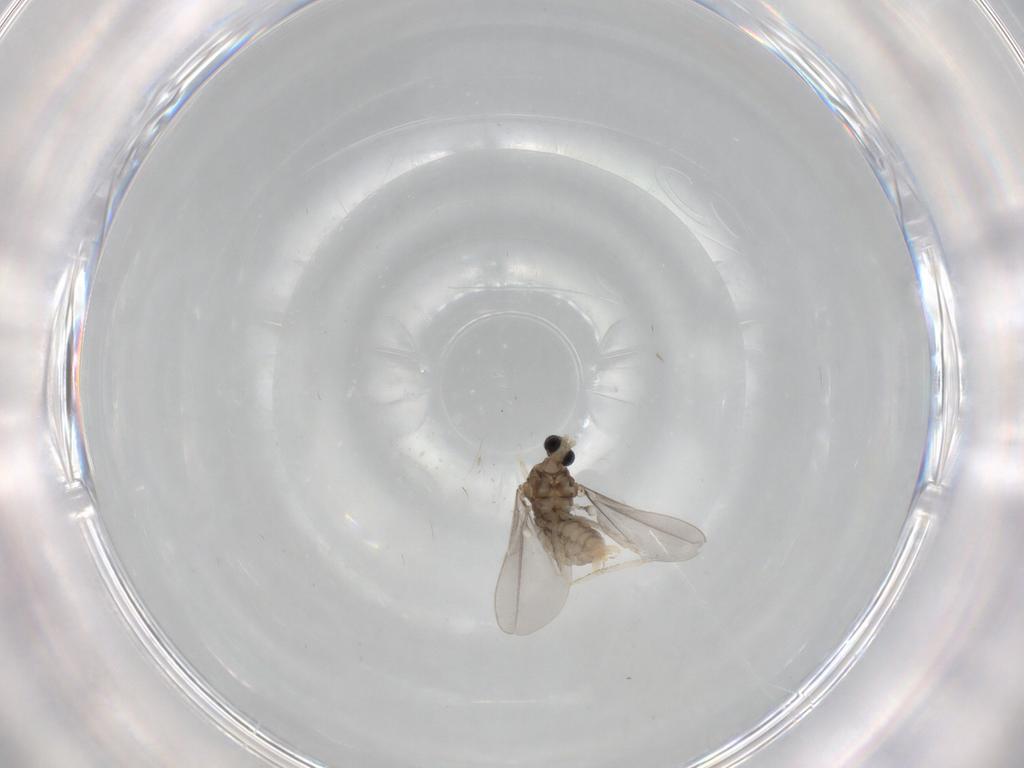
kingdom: Animalia
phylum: Arthropoda
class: Insecta
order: Diptera
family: Cecidomyiidae
